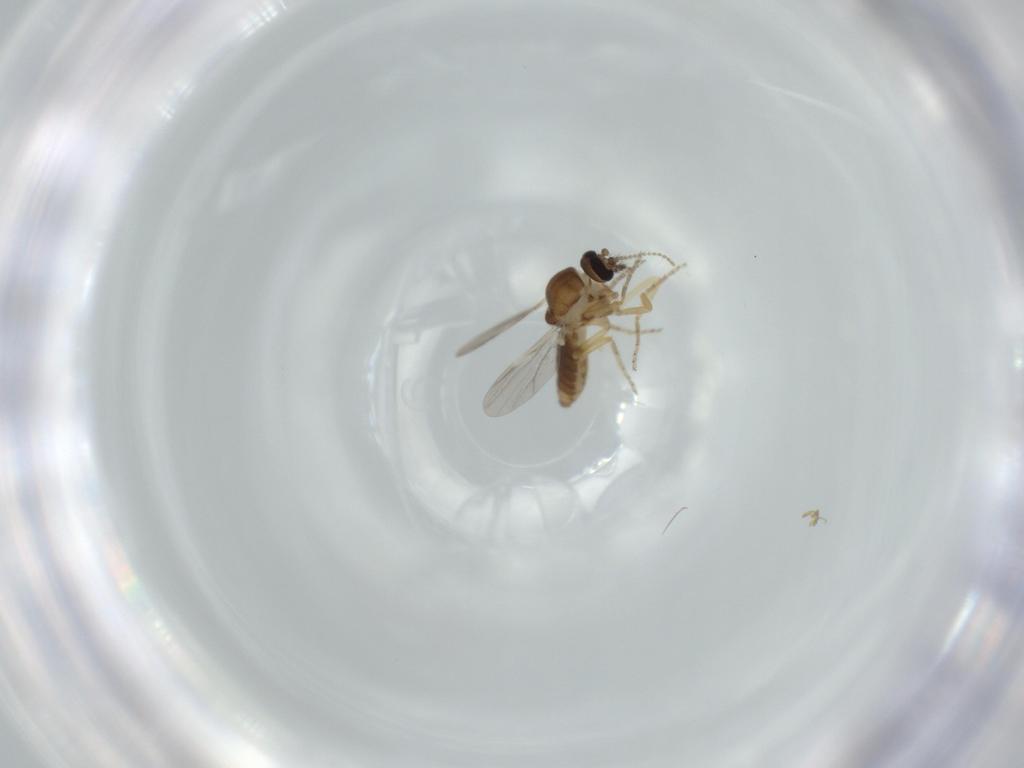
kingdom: Animalia
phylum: Arthropoda
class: Insecta
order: Diptera
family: Ceratopogonidae
